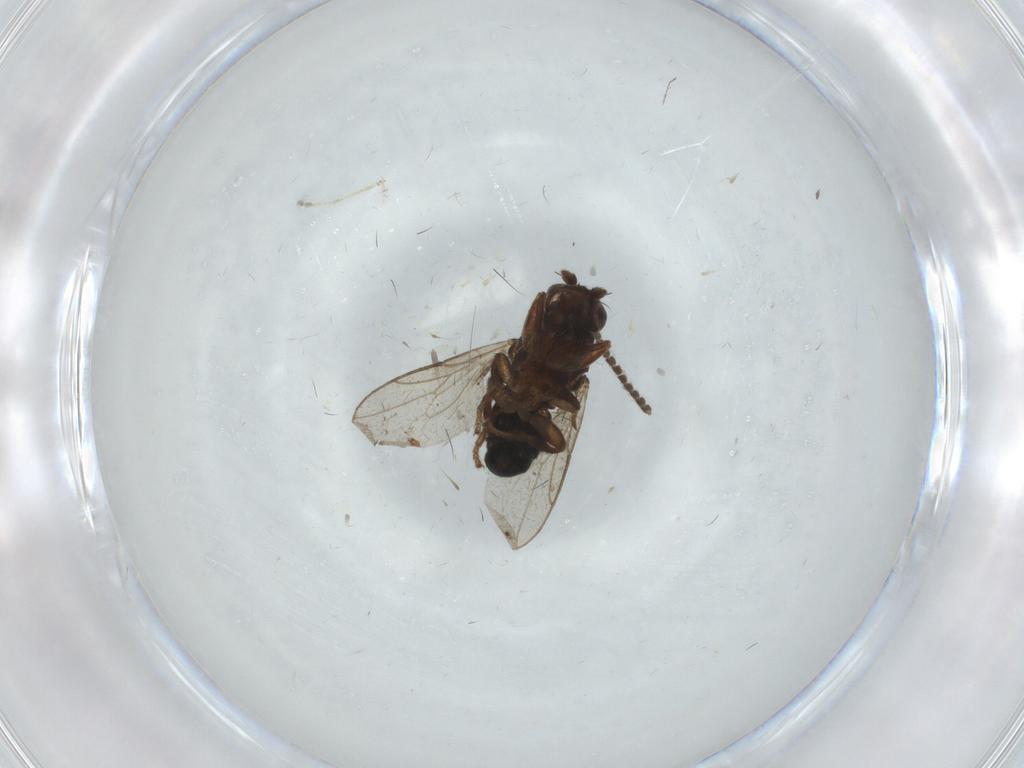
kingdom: Animalia
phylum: Arthropoda
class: Insecta
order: Diptera
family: Ditomyiidae
